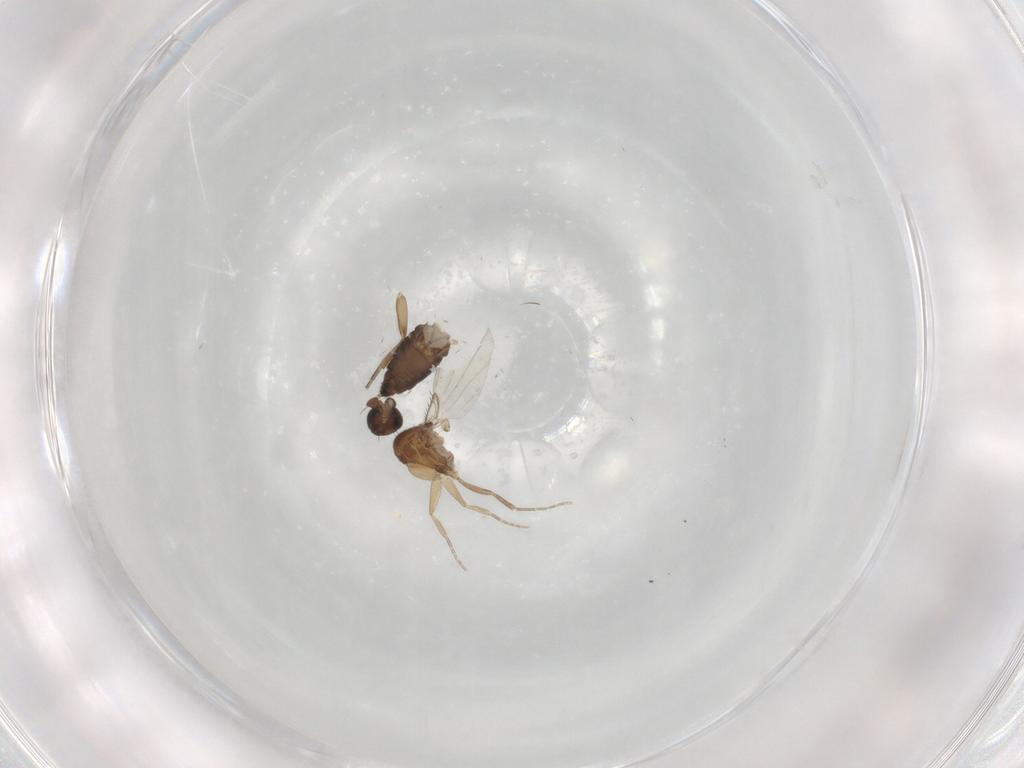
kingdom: Animalia
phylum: Arthropoda
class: Insecta
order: Diptera
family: Phoridae
